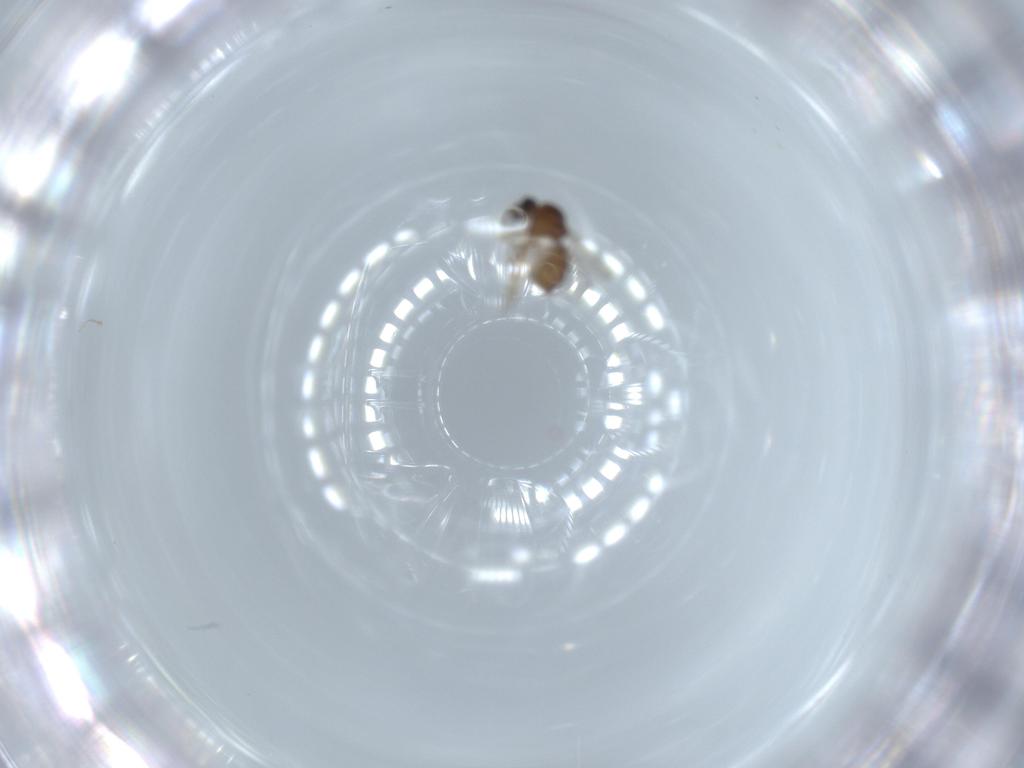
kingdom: Animalia
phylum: Arthropoda
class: Insecta
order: Diptera
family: Ceratopogonidae
